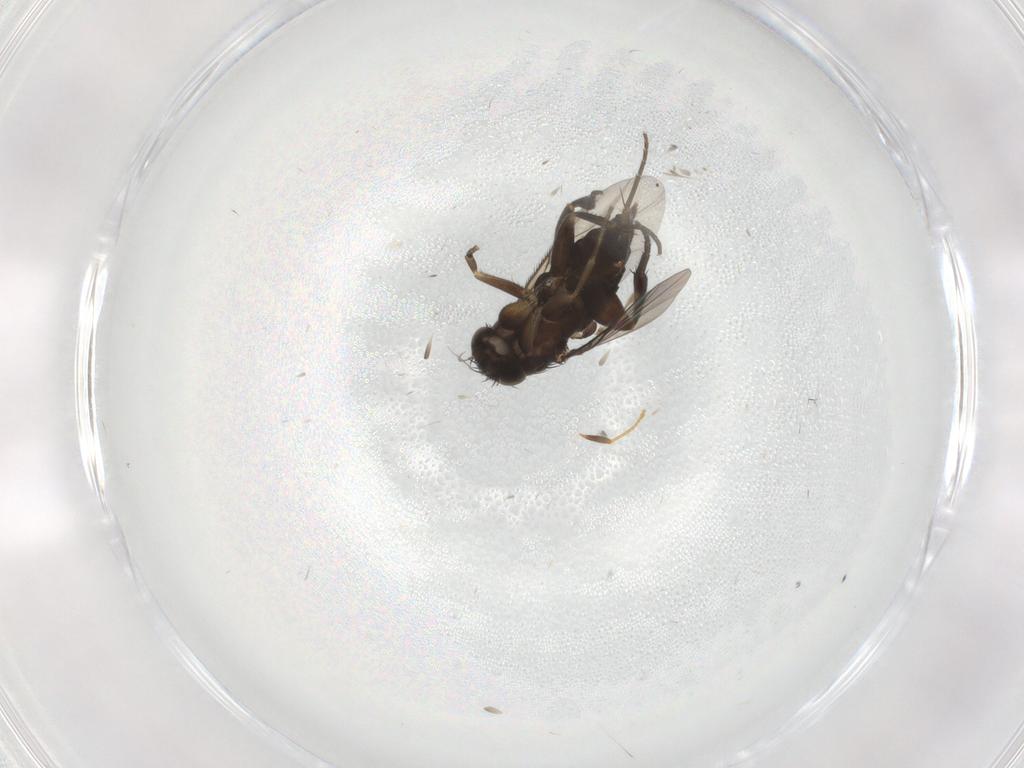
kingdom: Animalia
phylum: Arthropoda
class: Insecta
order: Diptera
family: Phoridae
